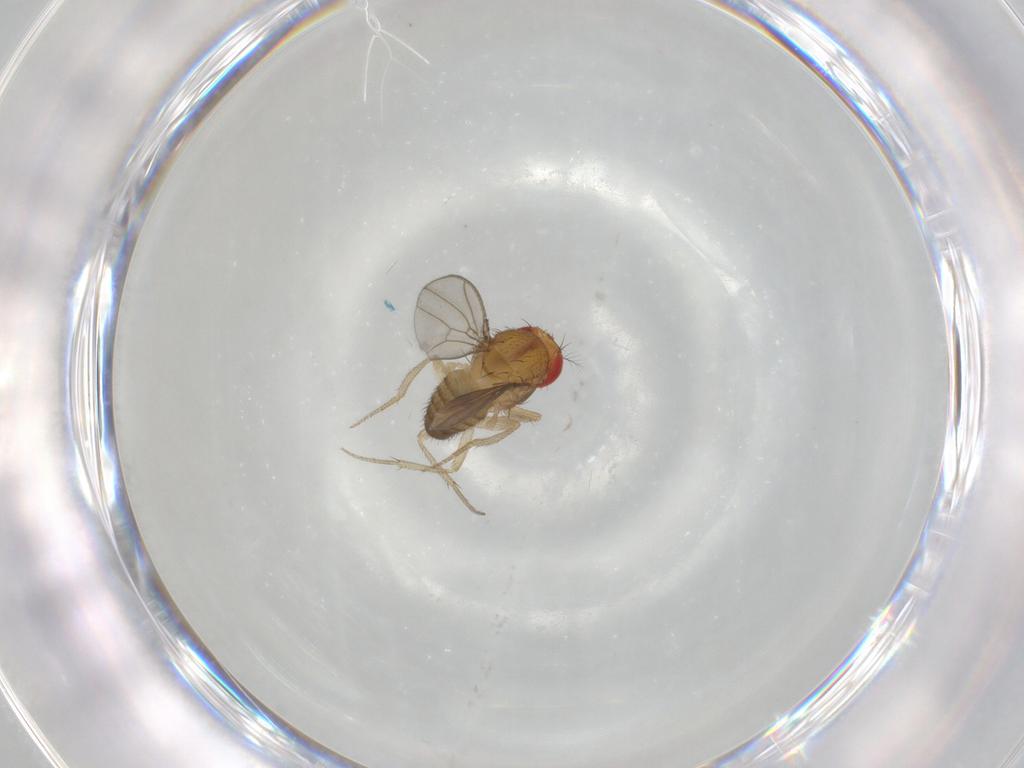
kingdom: Animalia
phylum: Arthropoda
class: Insecta
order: Diptera
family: Drosophilidae
